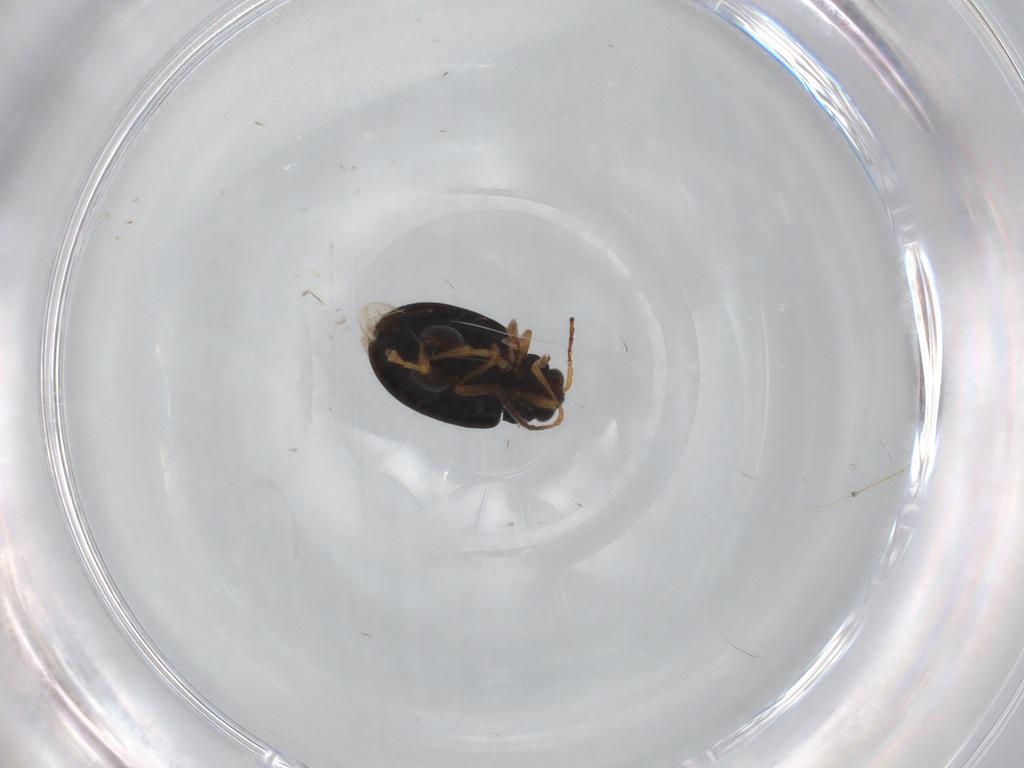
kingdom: Animalia
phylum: Arthropoda
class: Insecta
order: Coleoptera
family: Chrysomelidae
